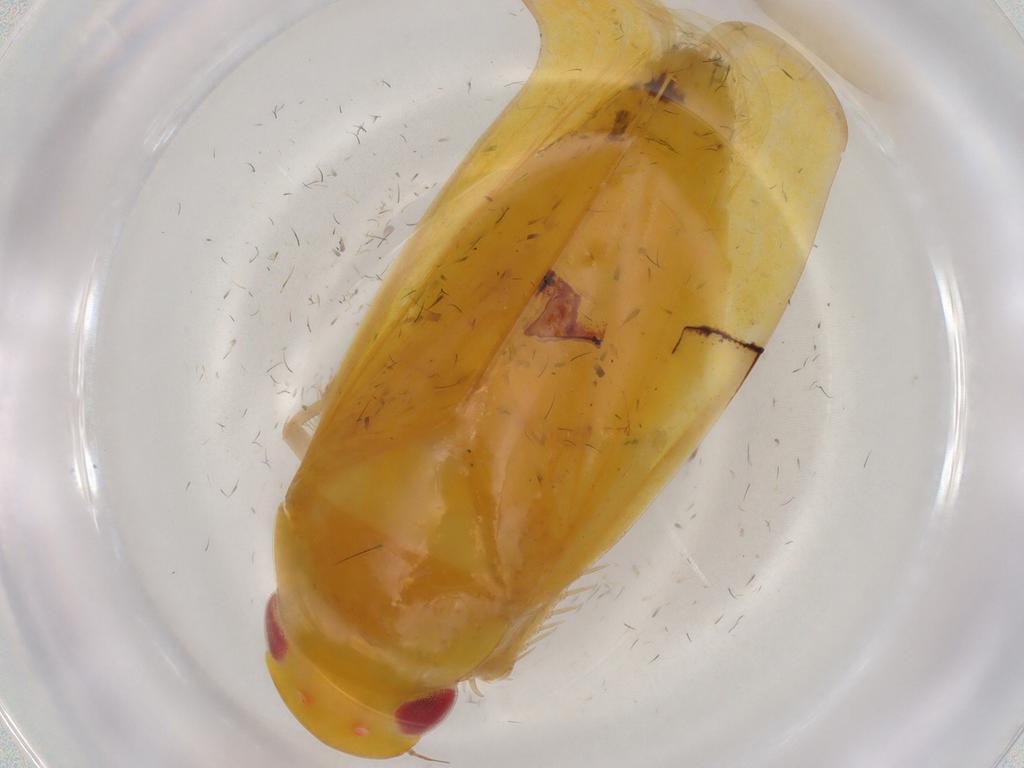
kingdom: Animalia
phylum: Arthropoda
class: Insecta
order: Hemiptera
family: Cicadellidae
